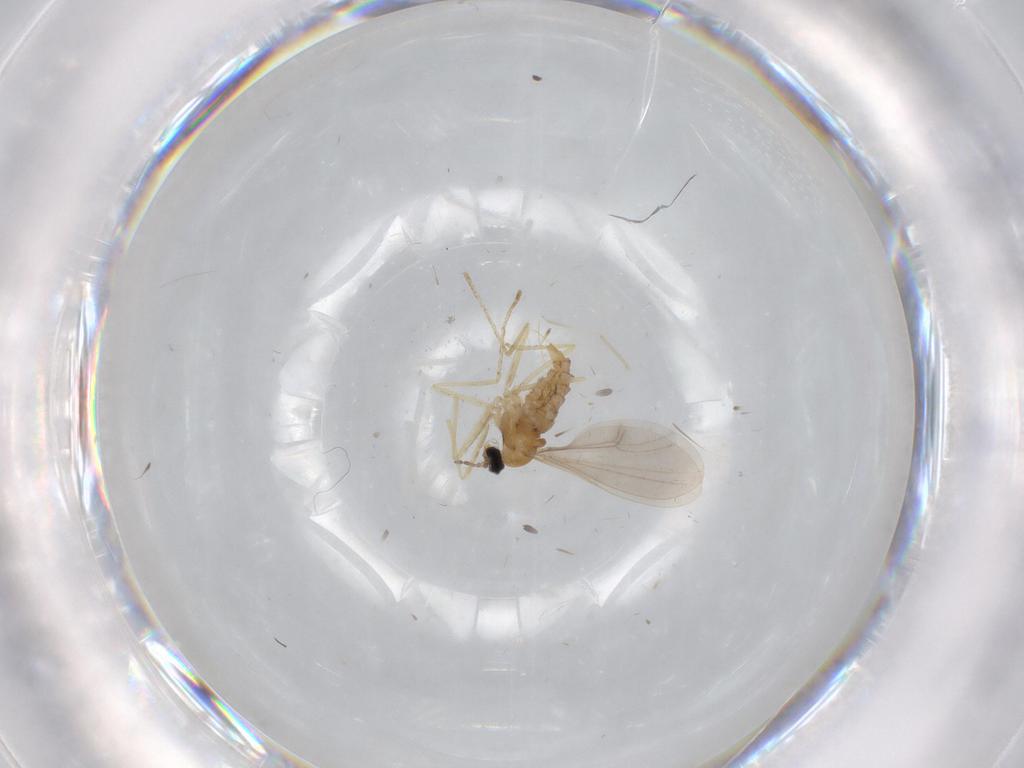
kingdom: Animalia
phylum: Arthropoda
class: Insecta
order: Diptera
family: Cecidomyiidae
